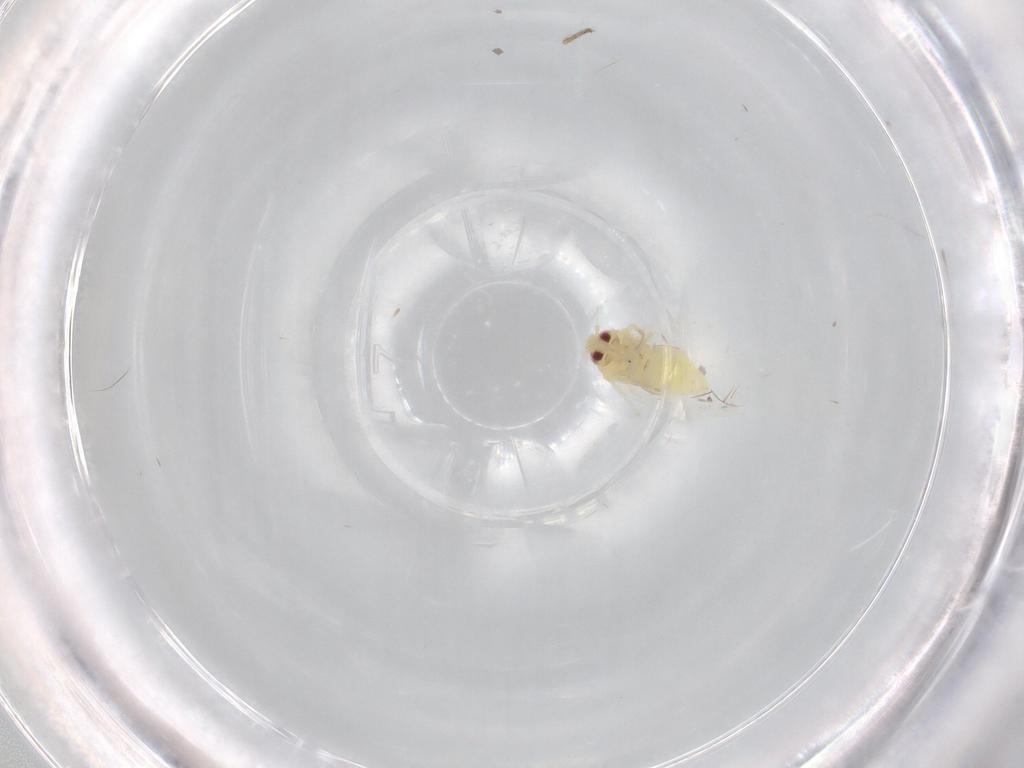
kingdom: Animalia
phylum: Arthropoda
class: Insecta
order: Hemiptera
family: Aleyrodidae
